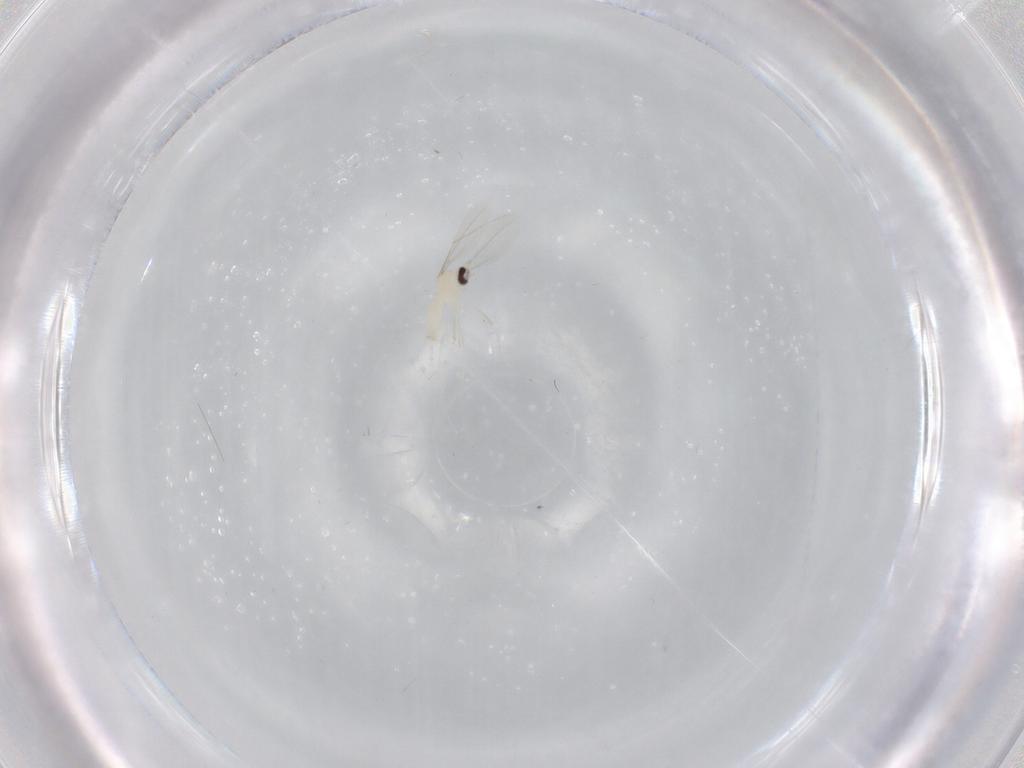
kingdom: Animalia
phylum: Arthropoda
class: Insecta
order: Diptera
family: Cecidomyiidae
